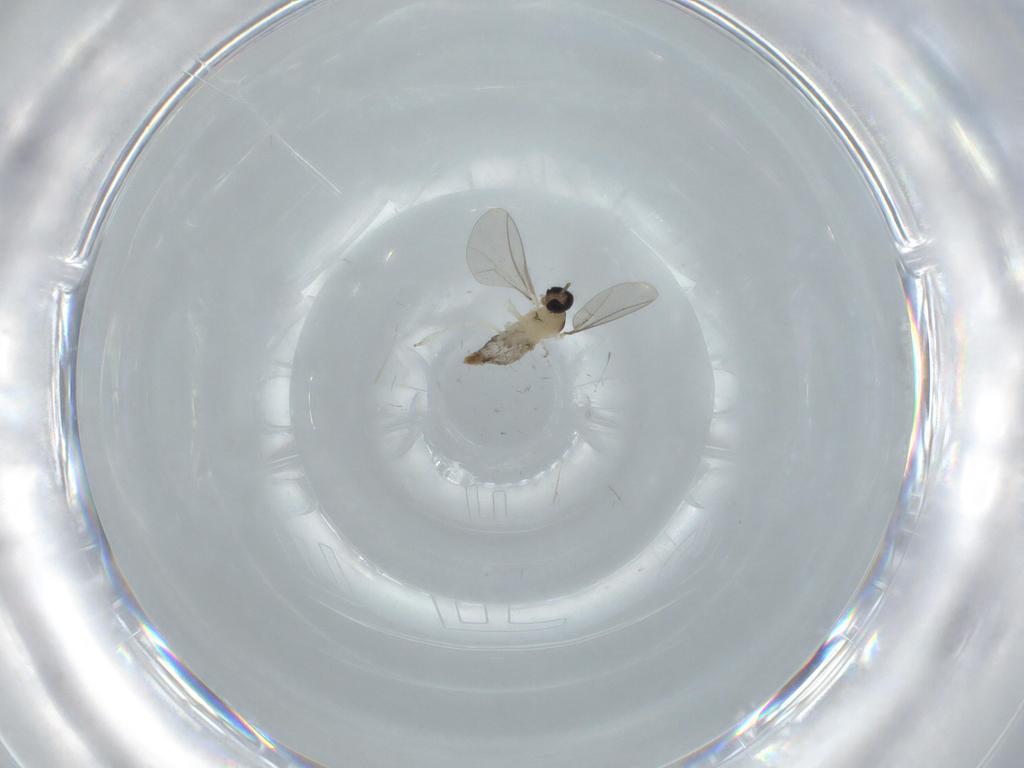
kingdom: Animalia
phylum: Arthropoda
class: Insecta
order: Diptera
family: Cecidomyiidae
